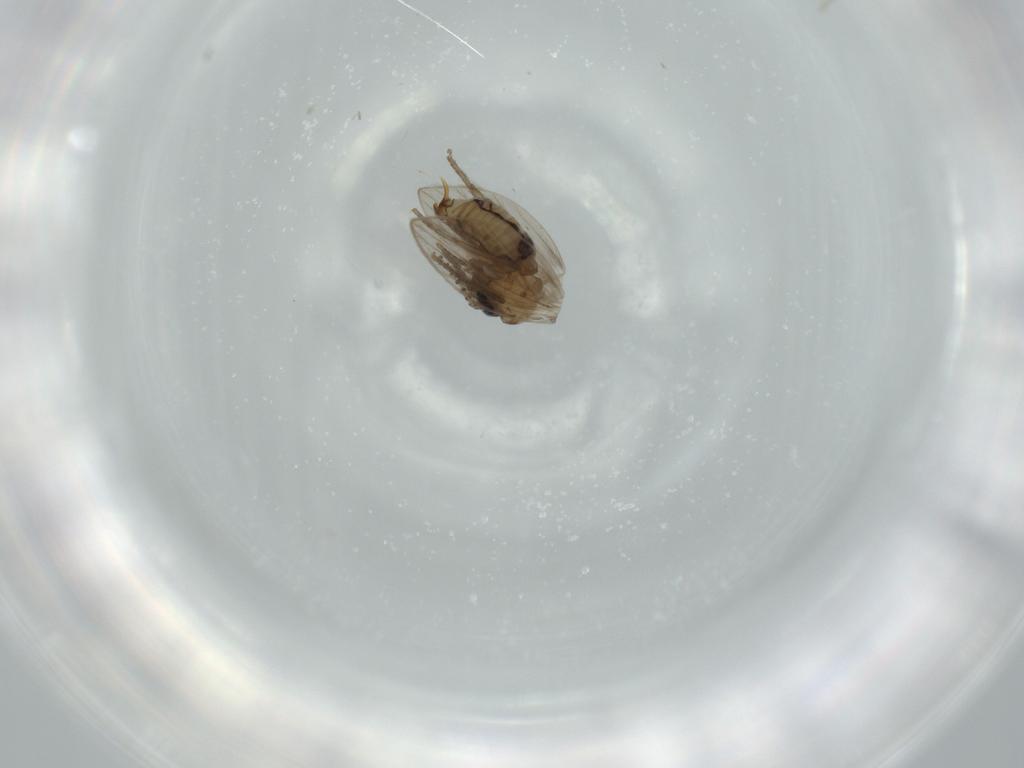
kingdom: Animalia
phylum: Arthropoda
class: Insecta
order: Diptera
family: Psychodidae
